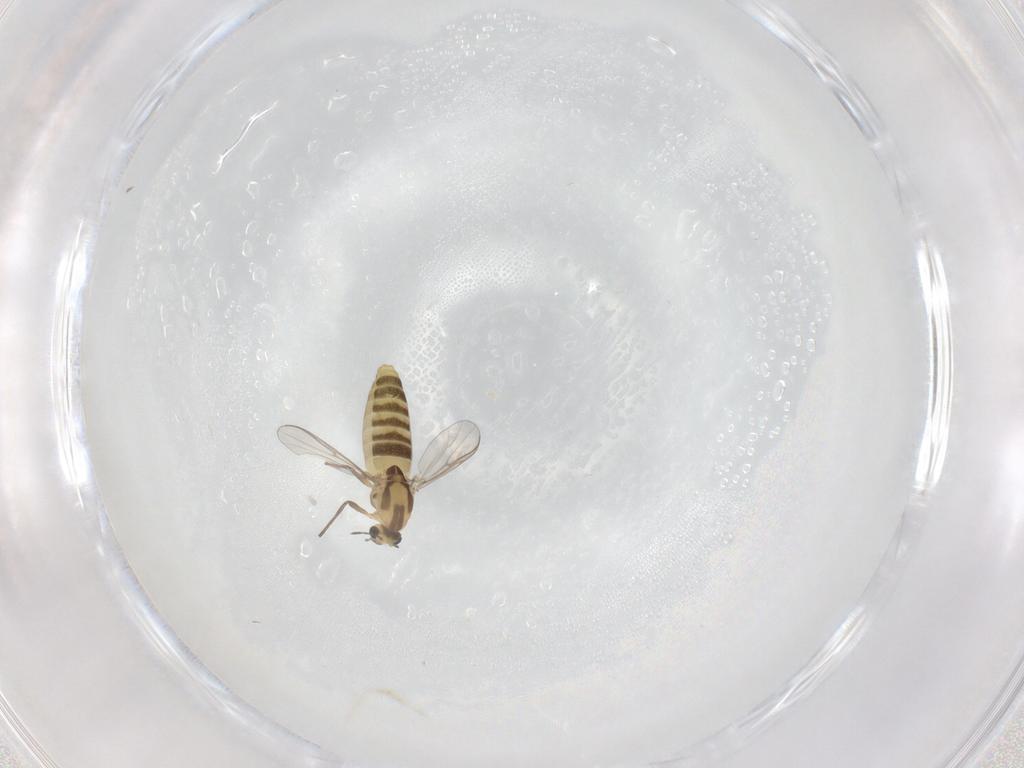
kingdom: Animalia
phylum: Arthropoda
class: Insecta
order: Diptera
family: Chironomidae
